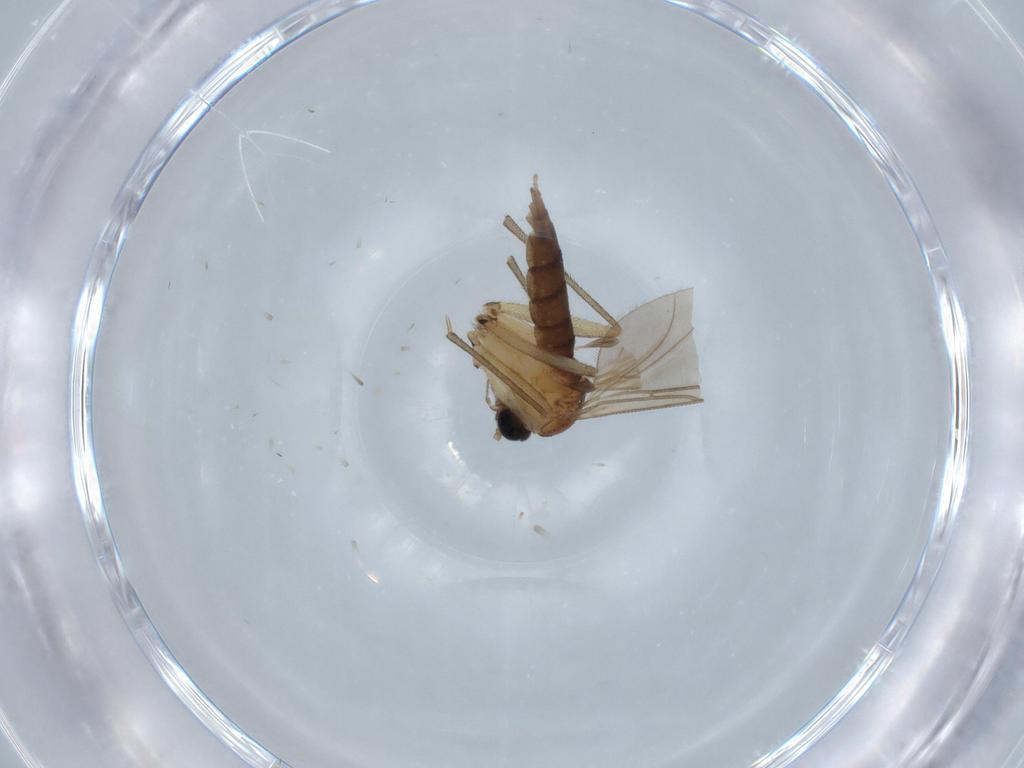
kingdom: Animalia
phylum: Arthropoda
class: Insecta
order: Diptera
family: Sciaridae
